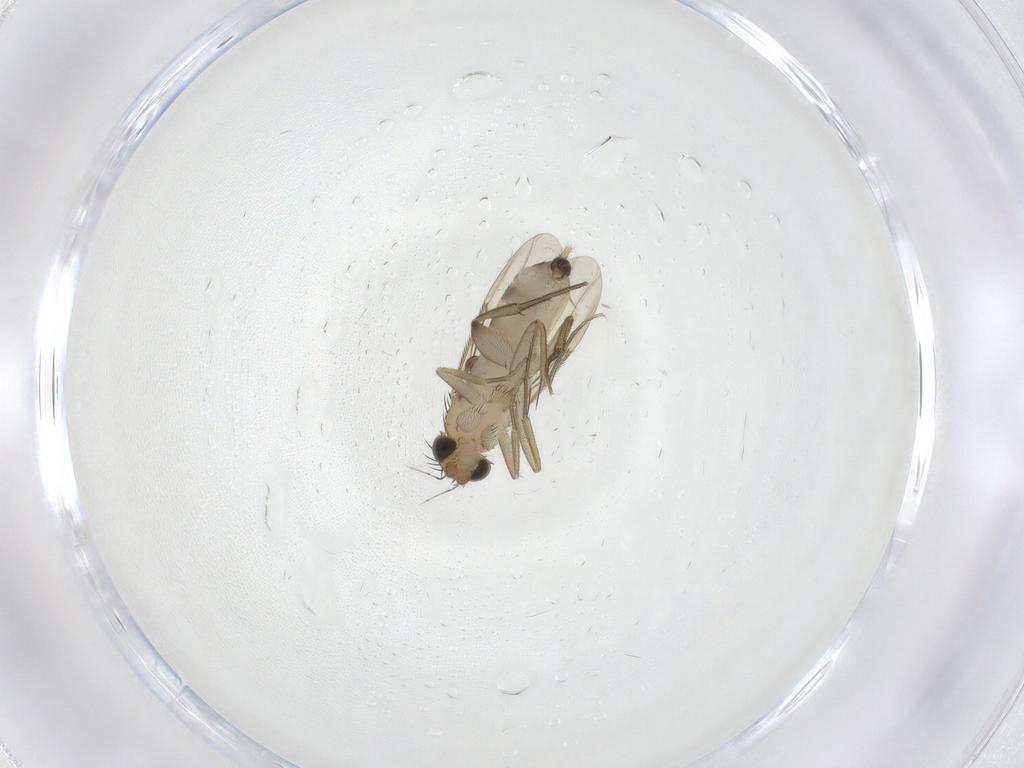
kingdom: Animalia
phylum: Arthropoda
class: Insecta
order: Diptera
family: Phoridae
